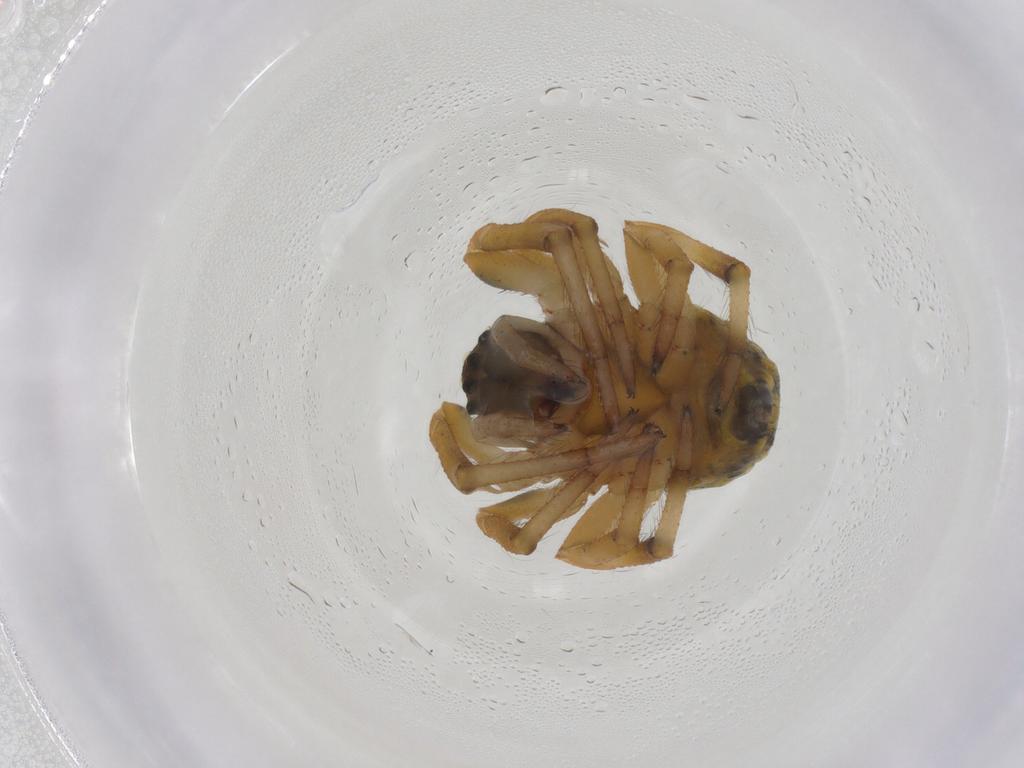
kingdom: Animalia
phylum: Arthropoda
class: Arachnida
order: Araneae
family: Araneidae
